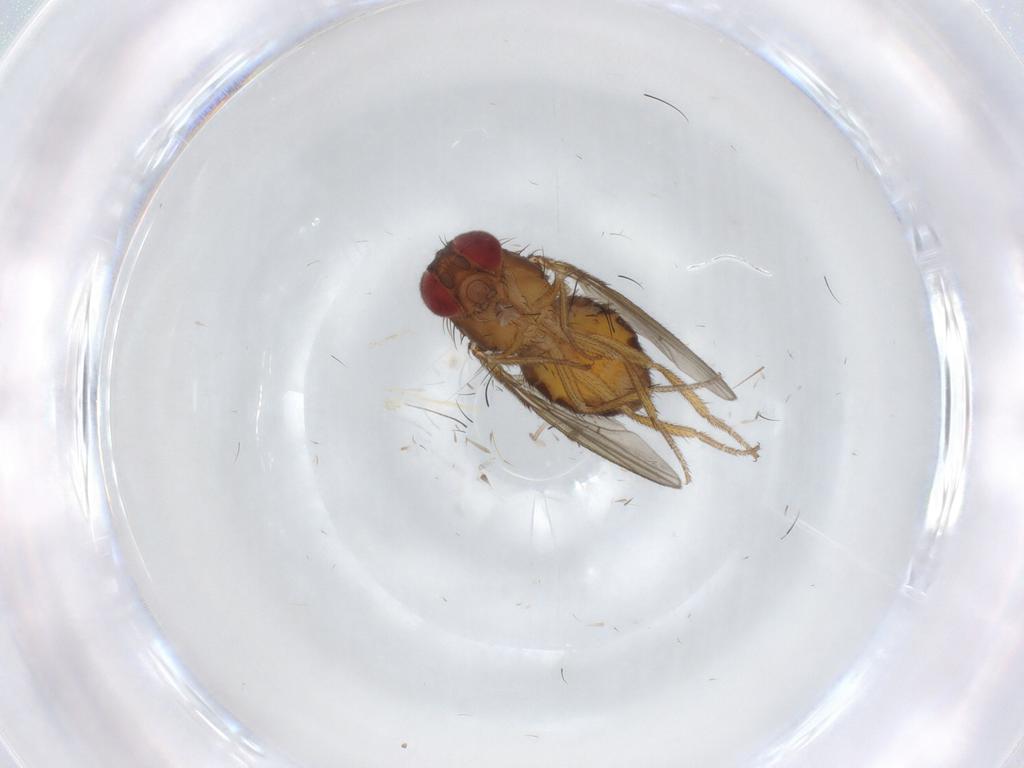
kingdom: Animalia
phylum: Arthropoda
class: Insecta
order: Diptera
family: Drosophilidae
